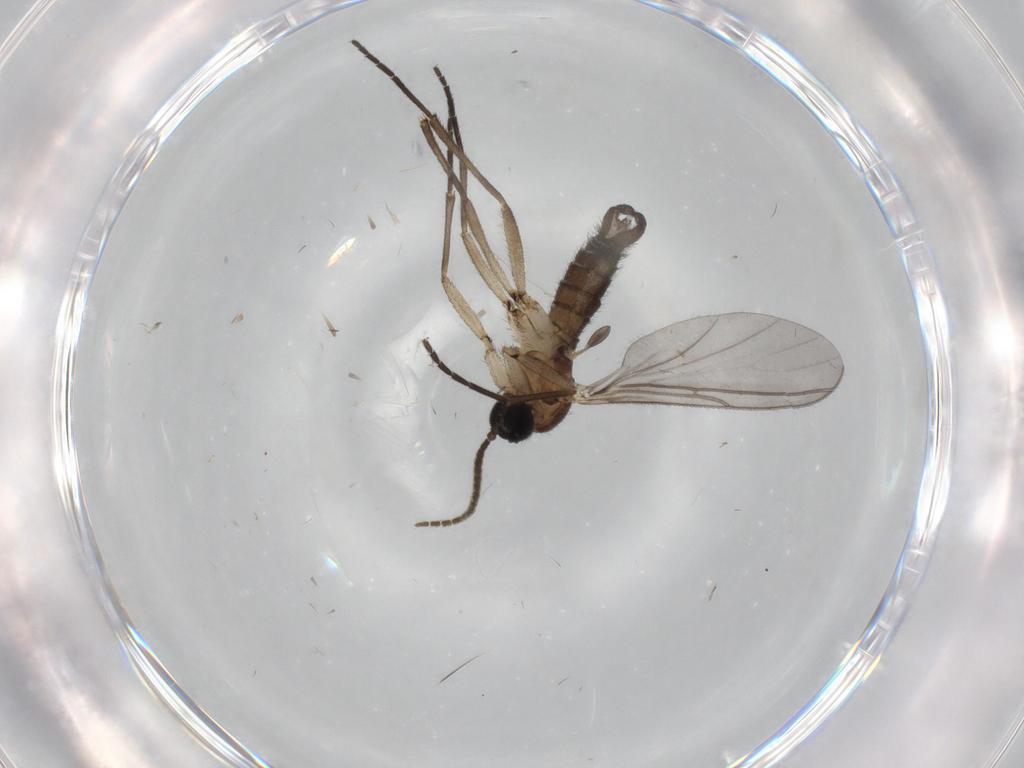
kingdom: Animalia
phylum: Arthropoda
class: Insecta
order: Diptera
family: Sciaridae
